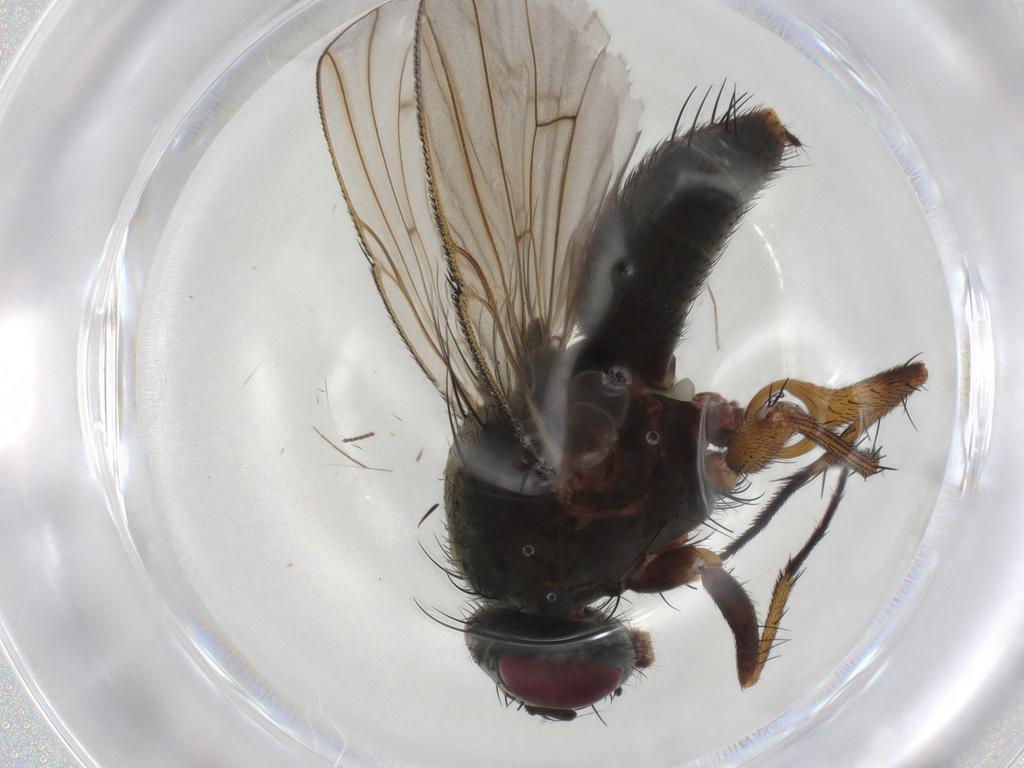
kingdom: Animalia
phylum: Arthropoda
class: Insecta
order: Diptera
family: Muscidae
